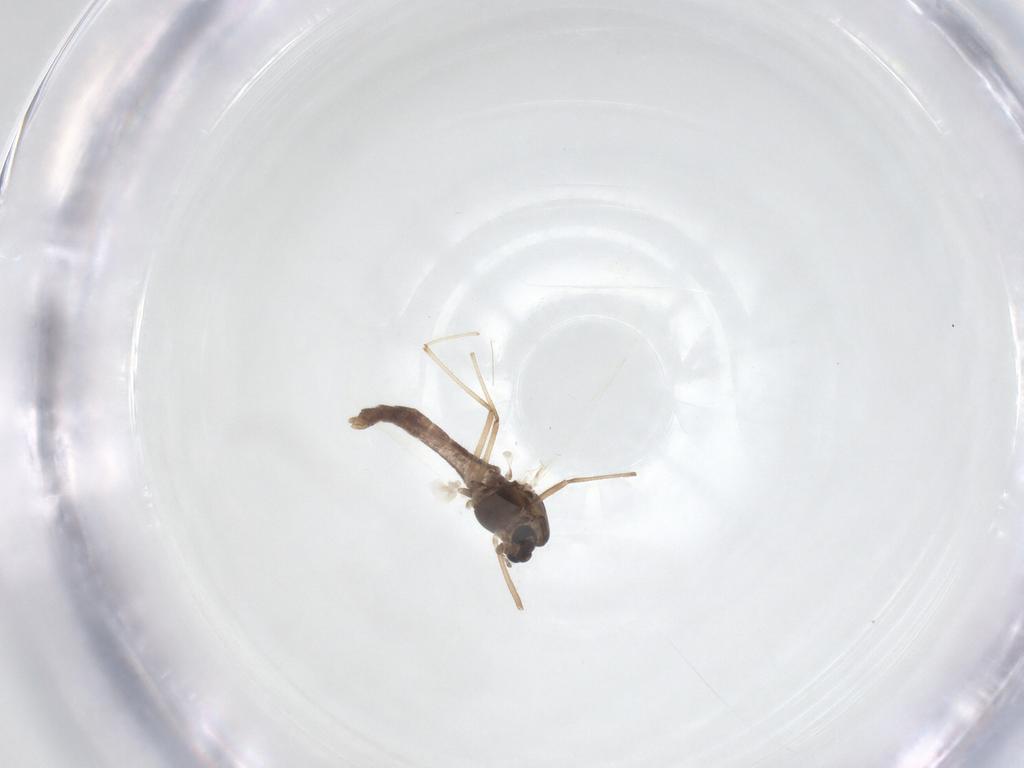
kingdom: Animalia
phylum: Arthropoda
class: Insecta
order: Diptera
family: Chironomidae
